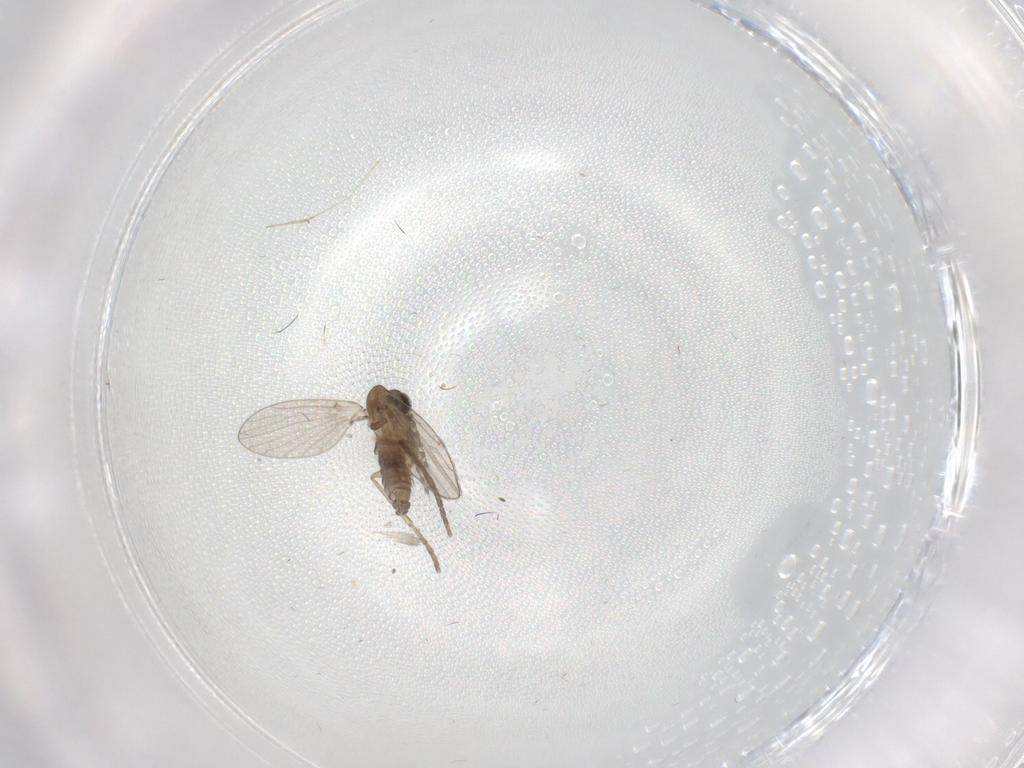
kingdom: Animalia
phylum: Arthropoda
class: Insecta
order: Diptera
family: Psychodidae
